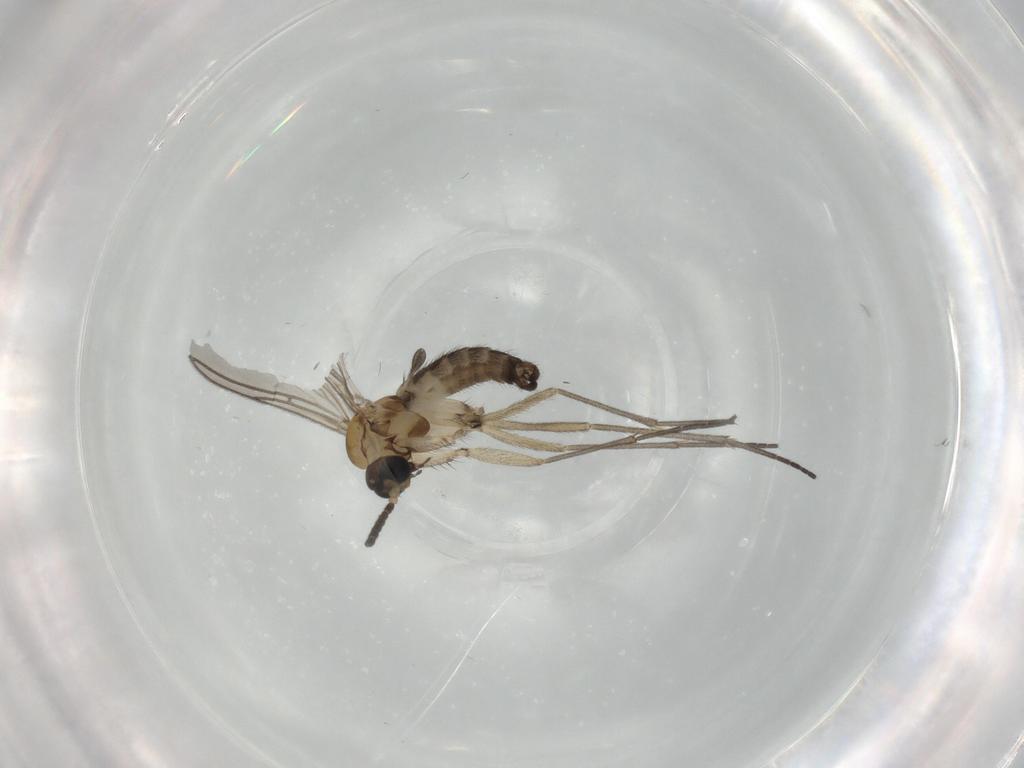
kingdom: Animalia
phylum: Arthropoda
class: Insecta
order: Diptera
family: Sciaridae
